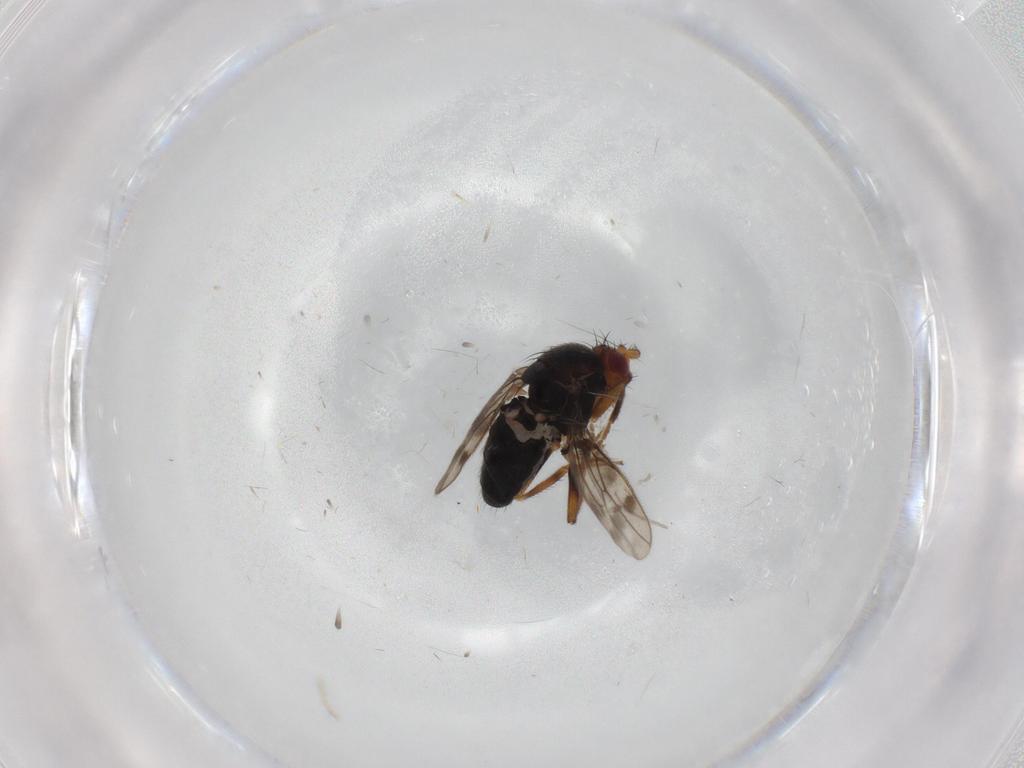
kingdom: Animalia
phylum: Arthropoda
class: Insecta
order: Diptera
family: Sphaeroceridae
